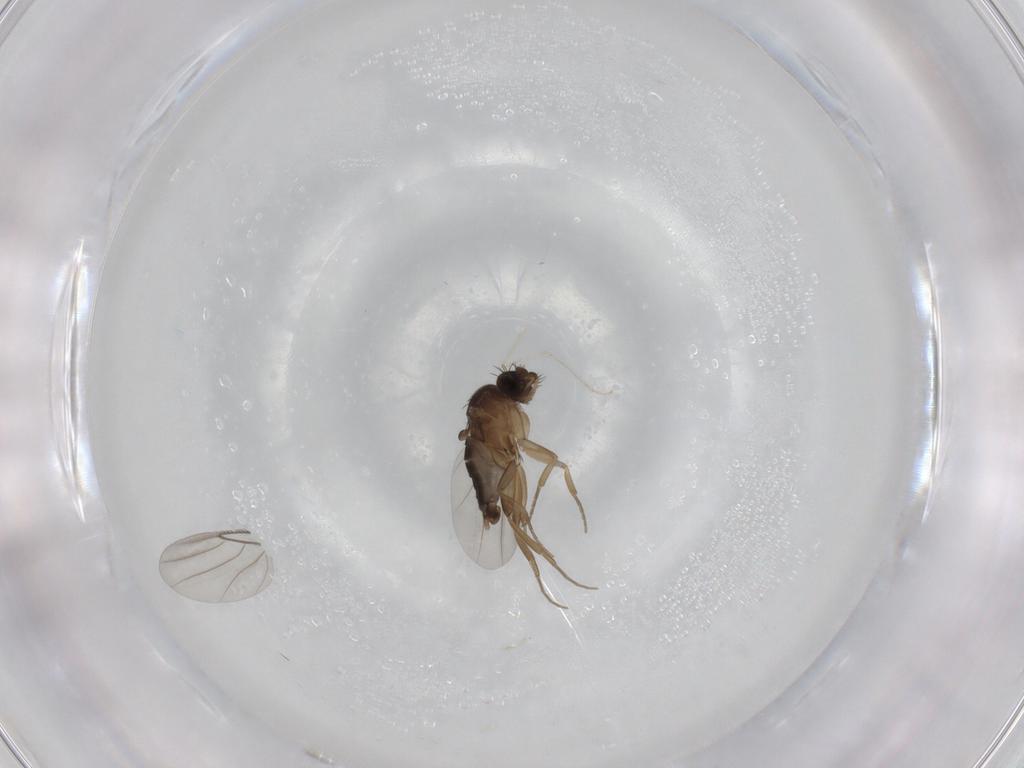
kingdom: Animalia
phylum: Arthropoda
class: Insecta
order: Diptera
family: Phoridae
